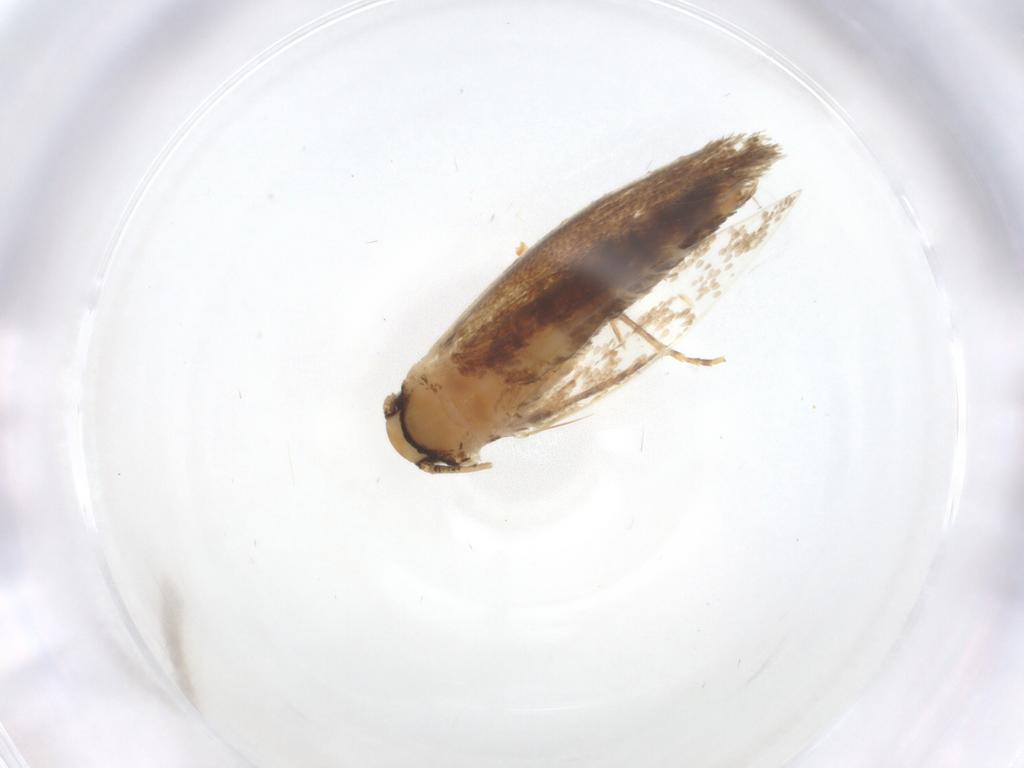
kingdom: Animalia
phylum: Arthropoda
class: Insecta
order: Lepidoptera
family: Tineidae
